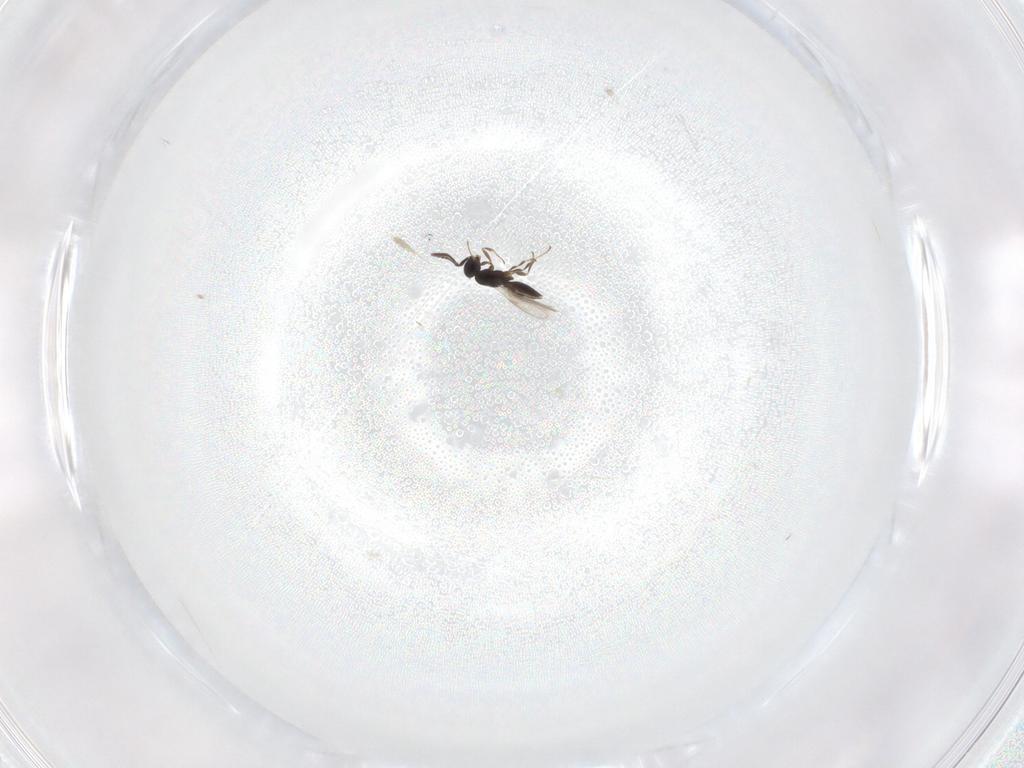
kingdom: Animalia
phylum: Arthropoda
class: Insecta
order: Hymenoptera
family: Scelionidae
